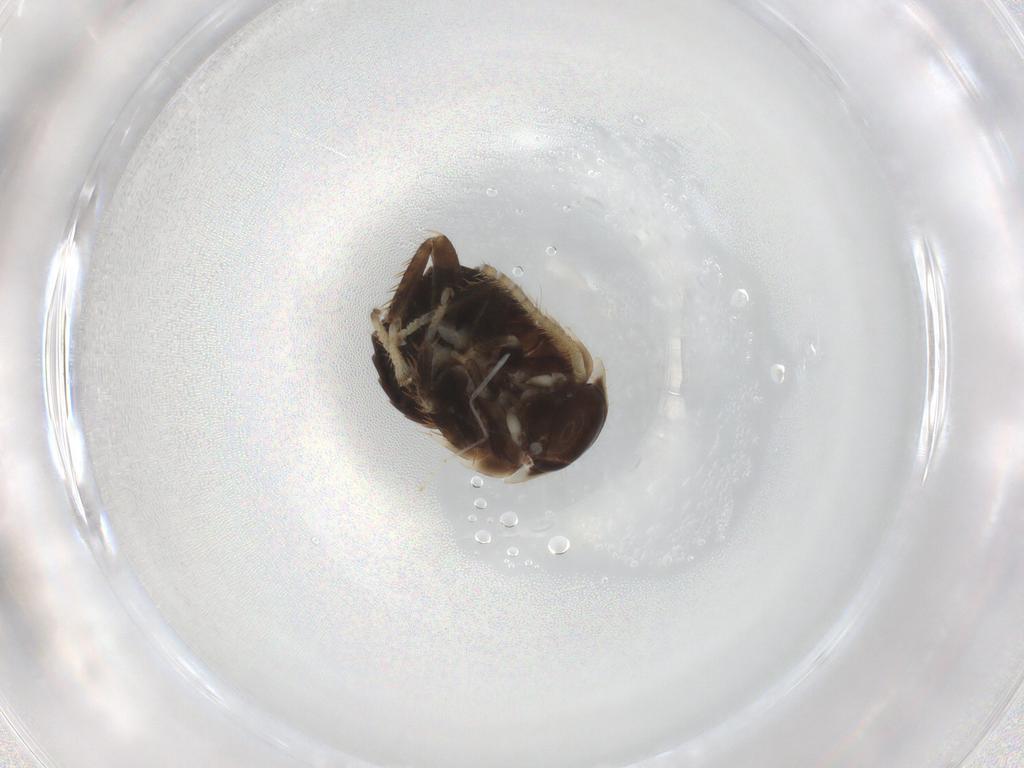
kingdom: Animalia
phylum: Arthropoda
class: Insecta
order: Blattodea
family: Blaberidae
